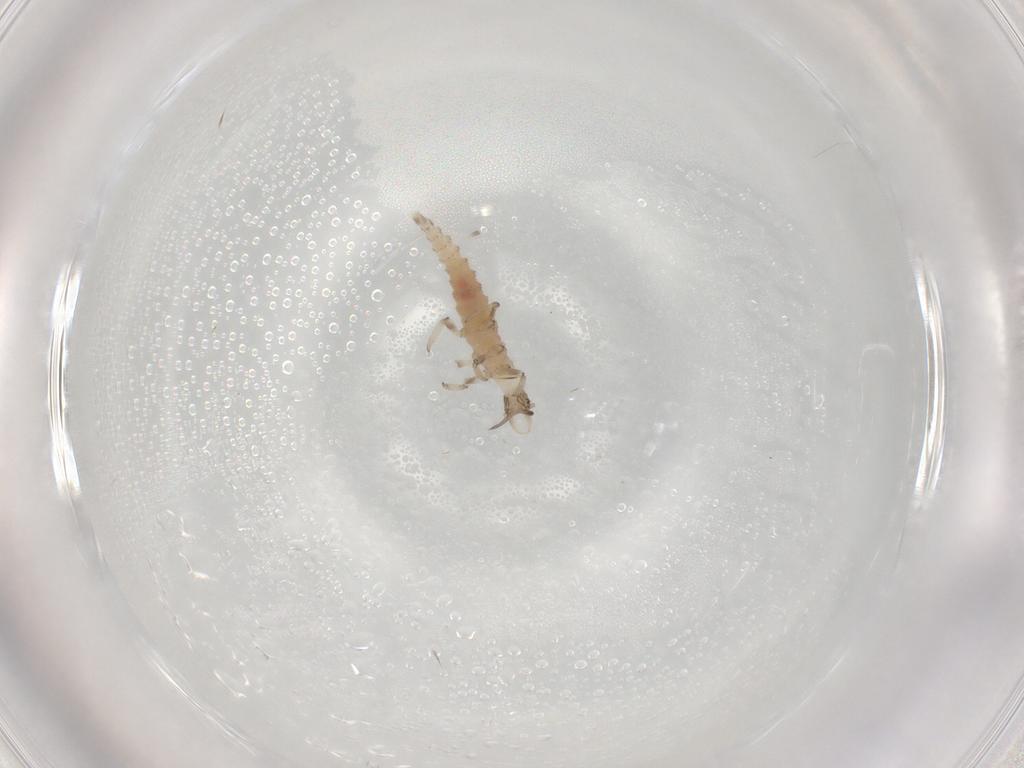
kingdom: Animalia
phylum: Arthropoda
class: Insecta
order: Neuroptera
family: Hemerobiidae
